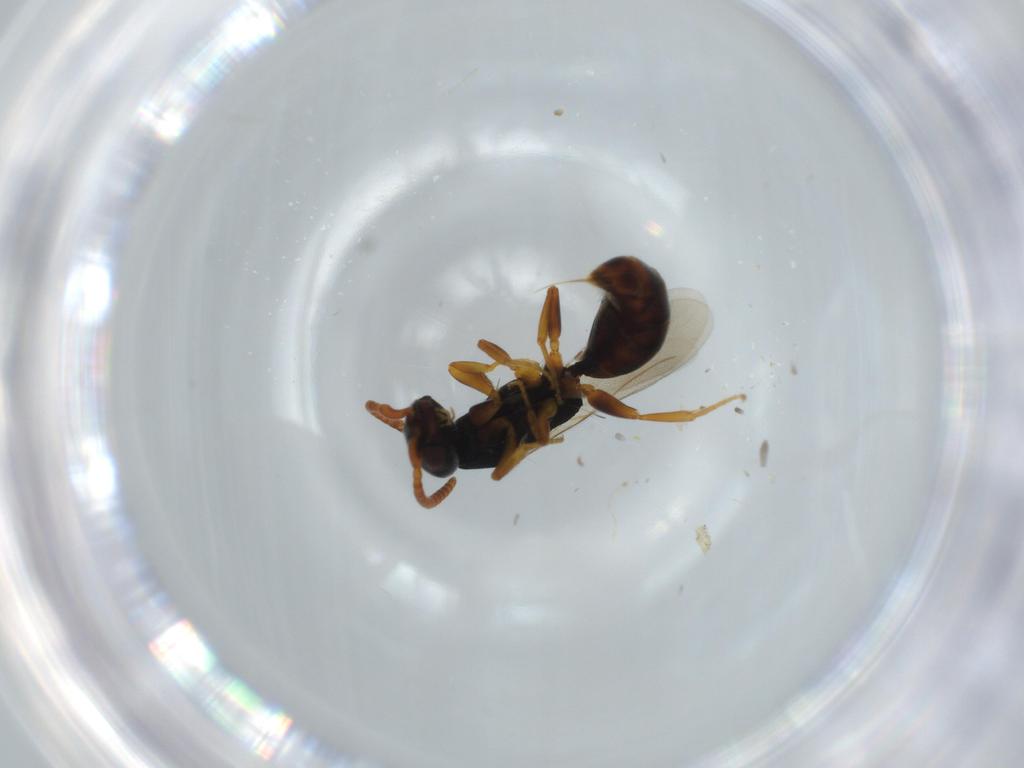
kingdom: Animalia
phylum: Arthropoda
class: Insecta
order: Hymenoptera
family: Bethylidae
